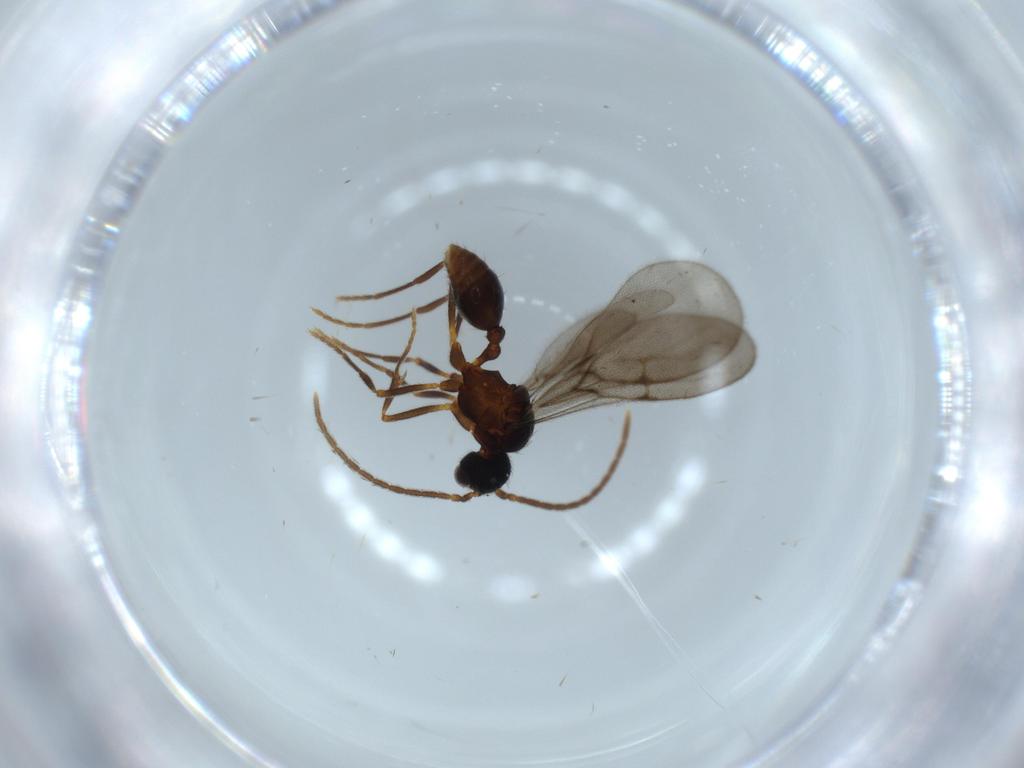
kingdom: Animalia
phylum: Arthropoda
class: Insecta
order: Hymenoptera
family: Formicidae
